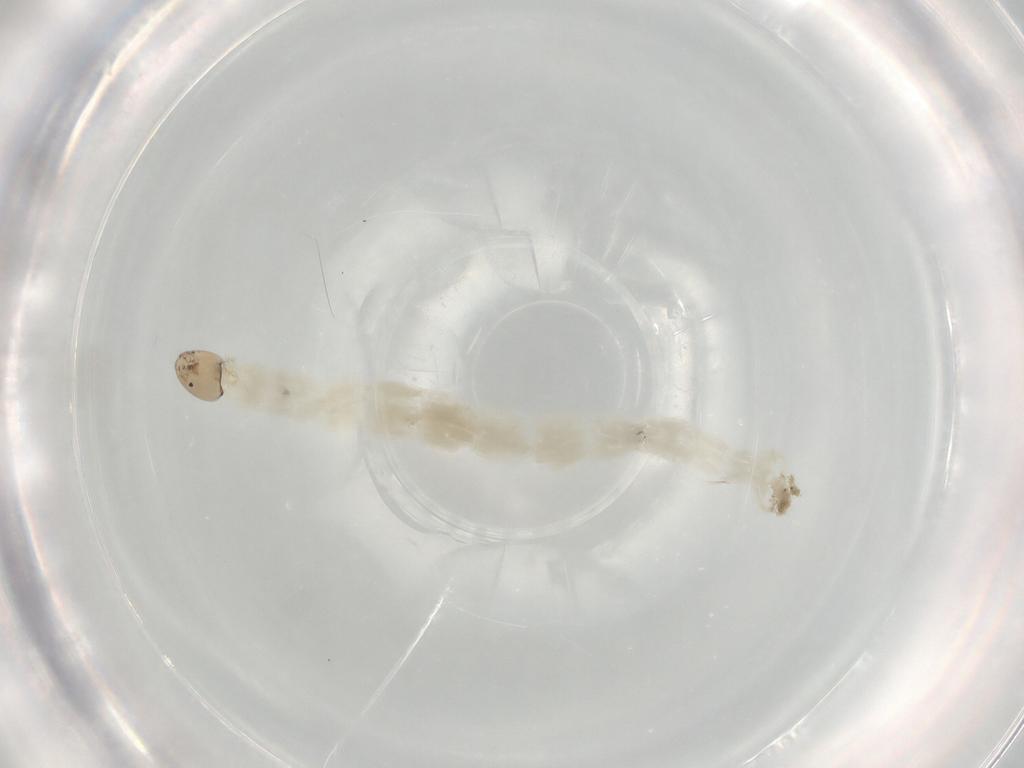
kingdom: Animalia
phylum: Arthropoda
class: Insecta
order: Diptera
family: Chironomidae
